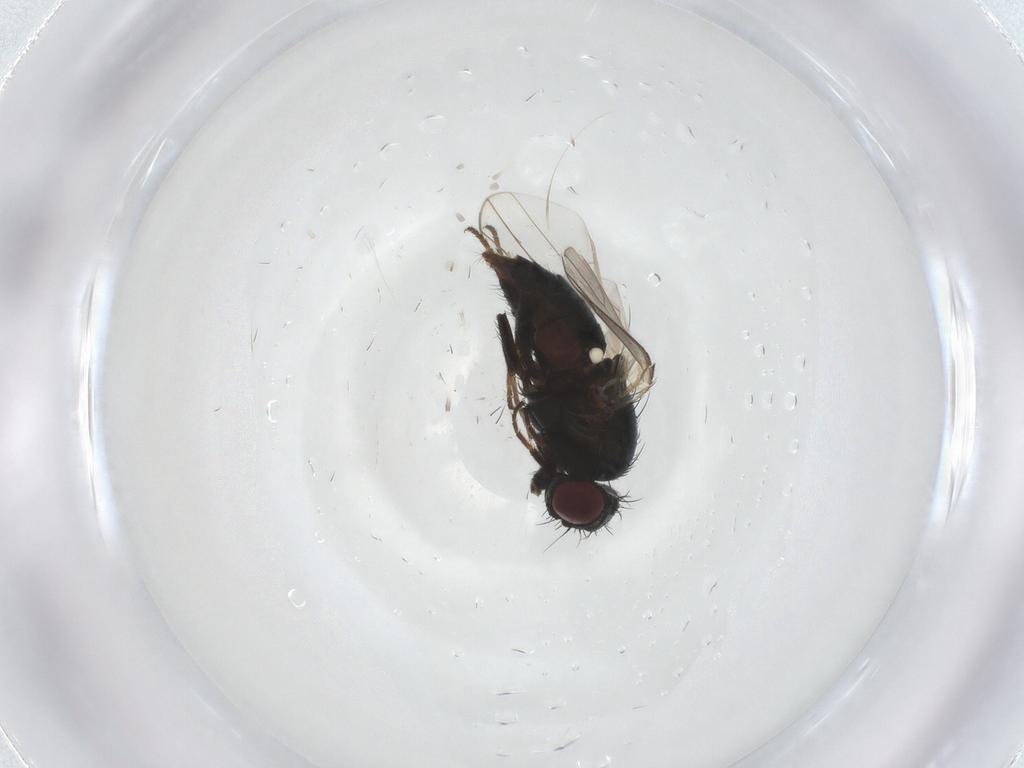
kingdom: Animalia
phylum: Arthropoda
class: Insecta
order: Diptera
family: Carnidae
